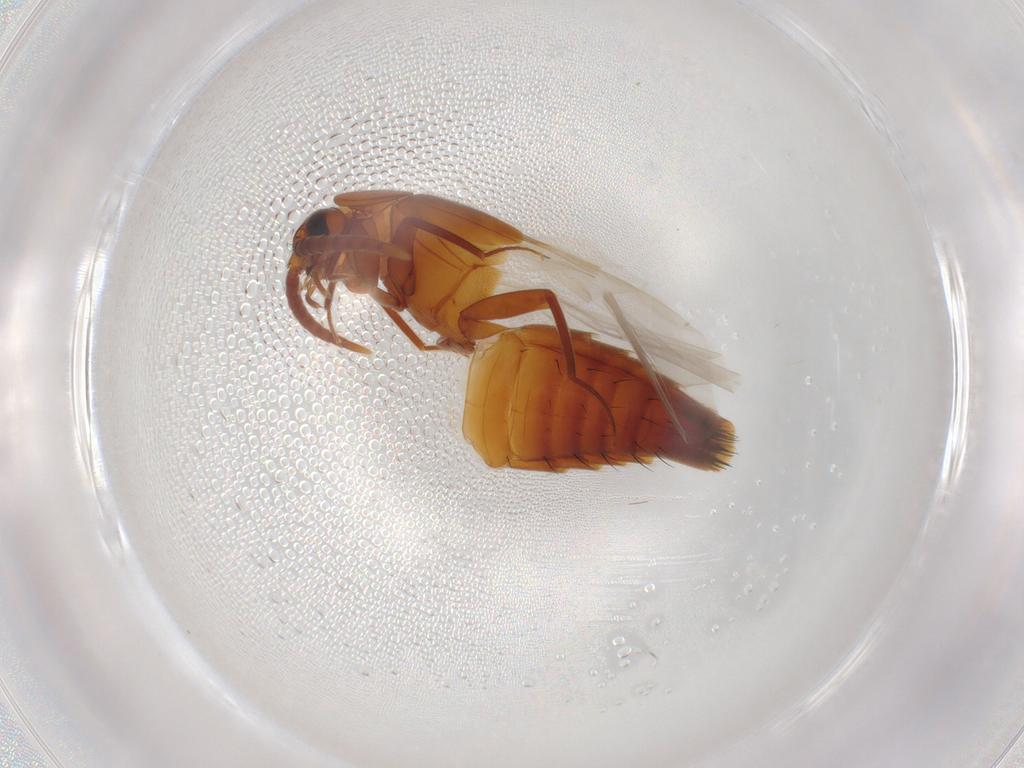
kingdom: Animalia
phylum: Arthropoda
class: Insecta
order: Coleoptera
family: Staphylinidae
